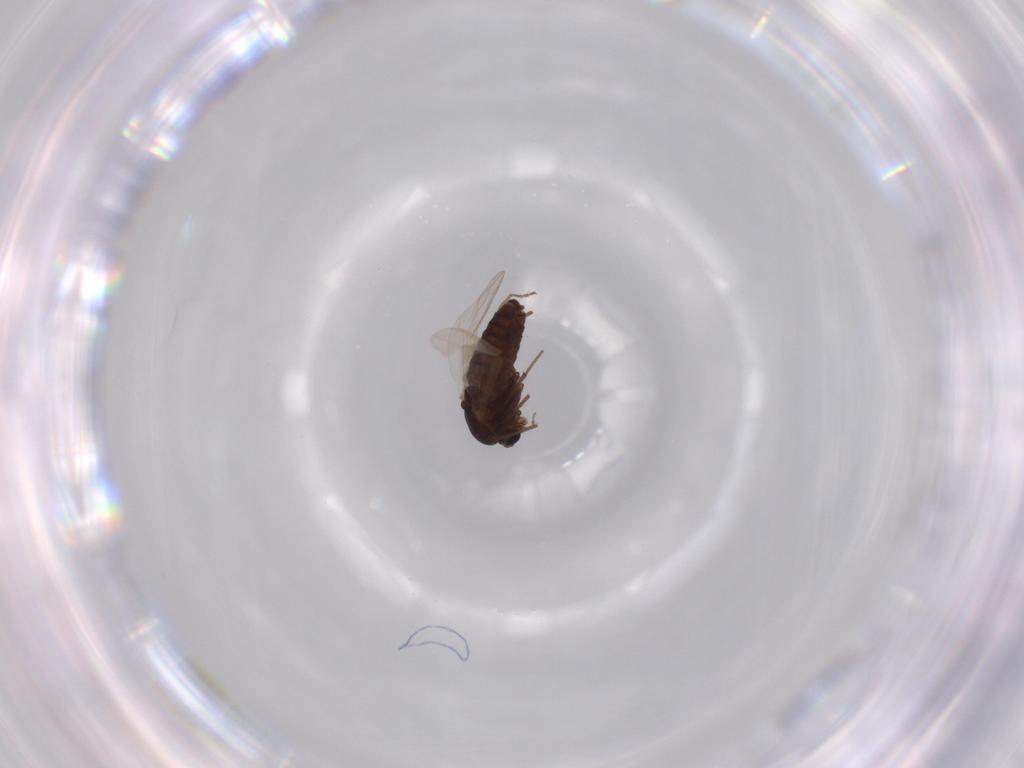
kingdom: Animalia
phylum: Arthropoda
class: Insecta
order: Diptera
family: Chironomidae
